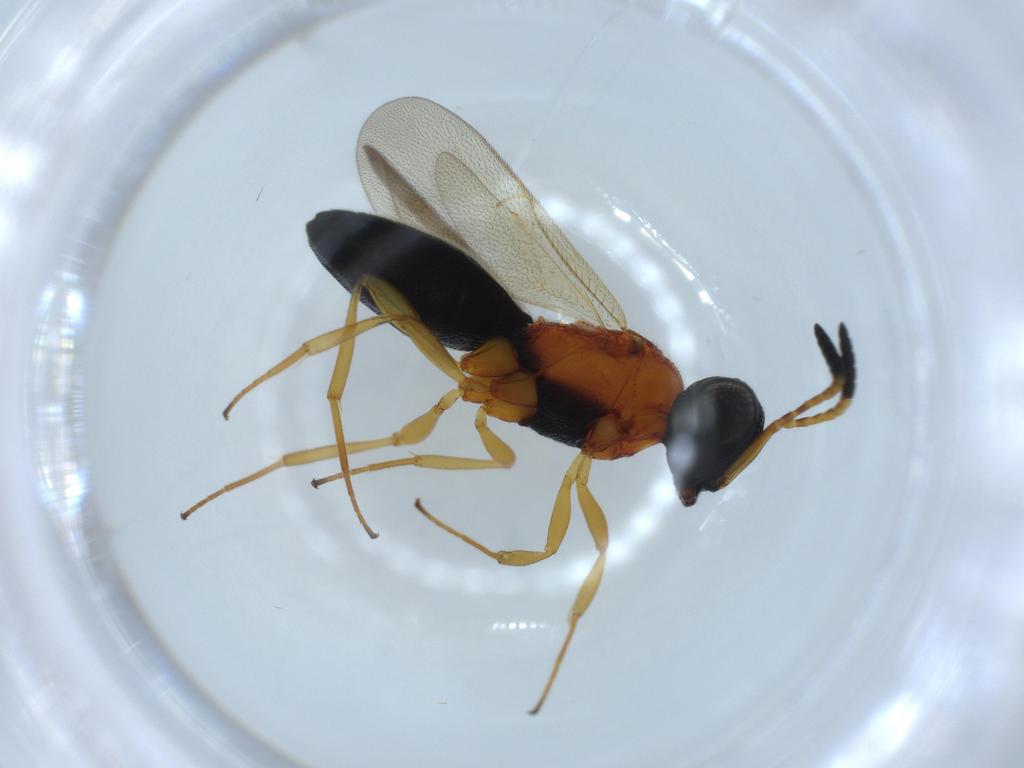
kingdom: Animalia
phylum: Arthropoda
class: Insecta
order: Hymenoptera
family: Scelionidae
